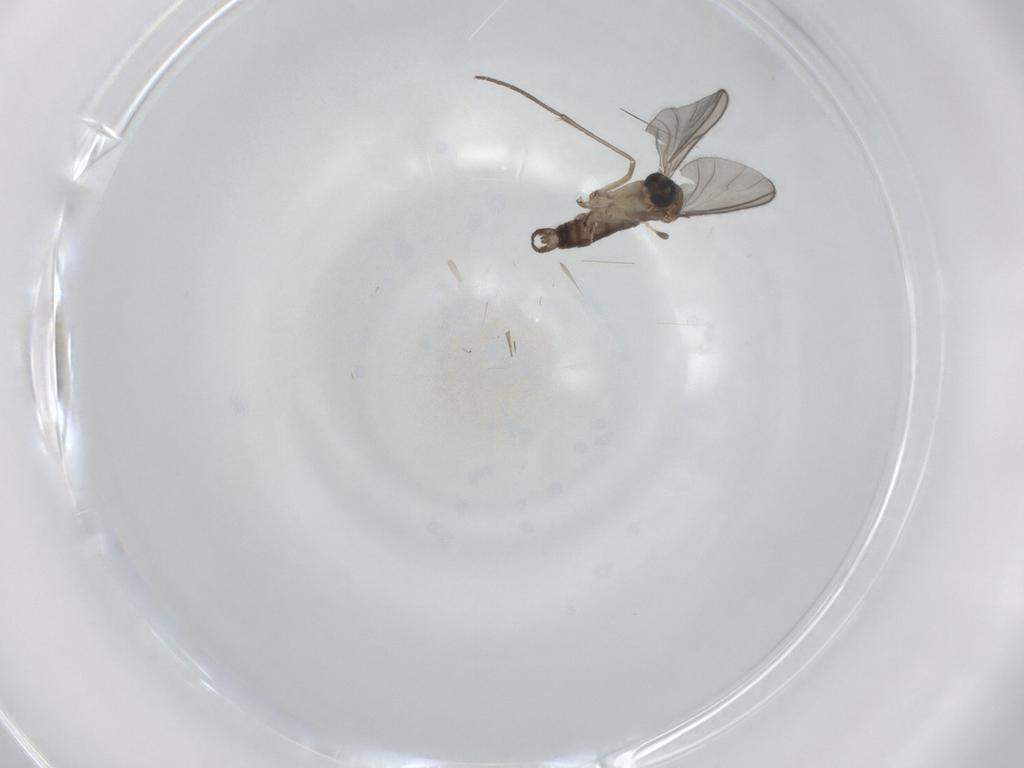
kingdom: Animalia
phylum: Arthropoda
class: Insecta
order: Diptera
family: Sciaridae
